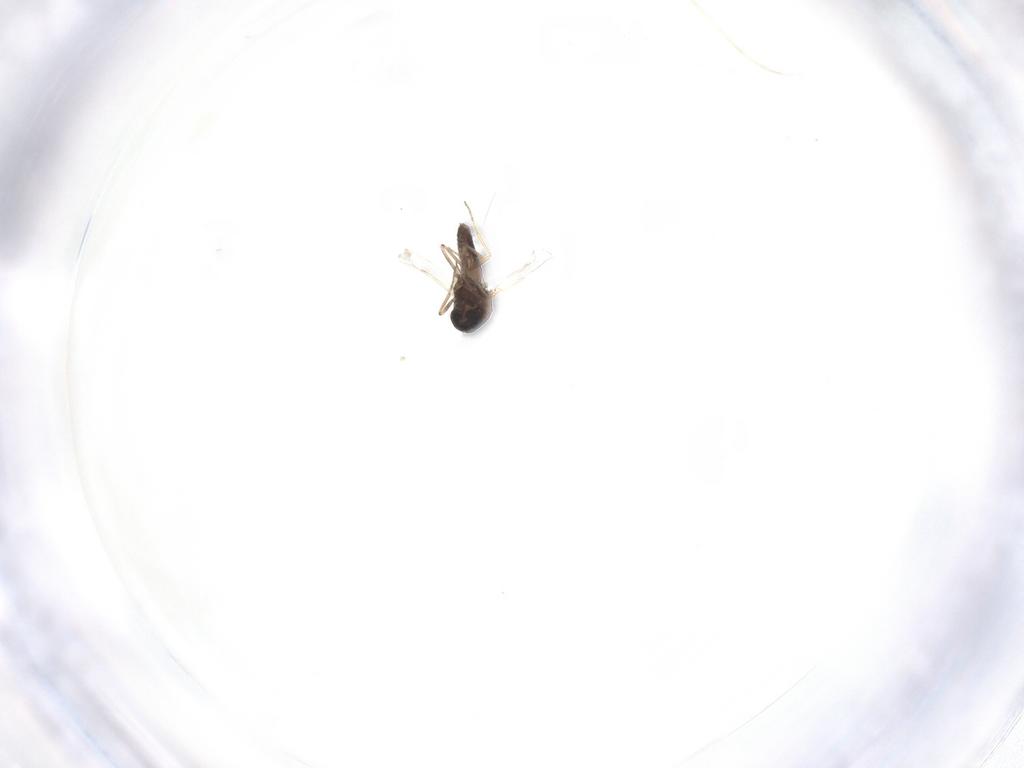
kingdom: Animalia
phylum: Arthropoda
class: Insecta
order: Diptera
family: Ceratopogonidae
